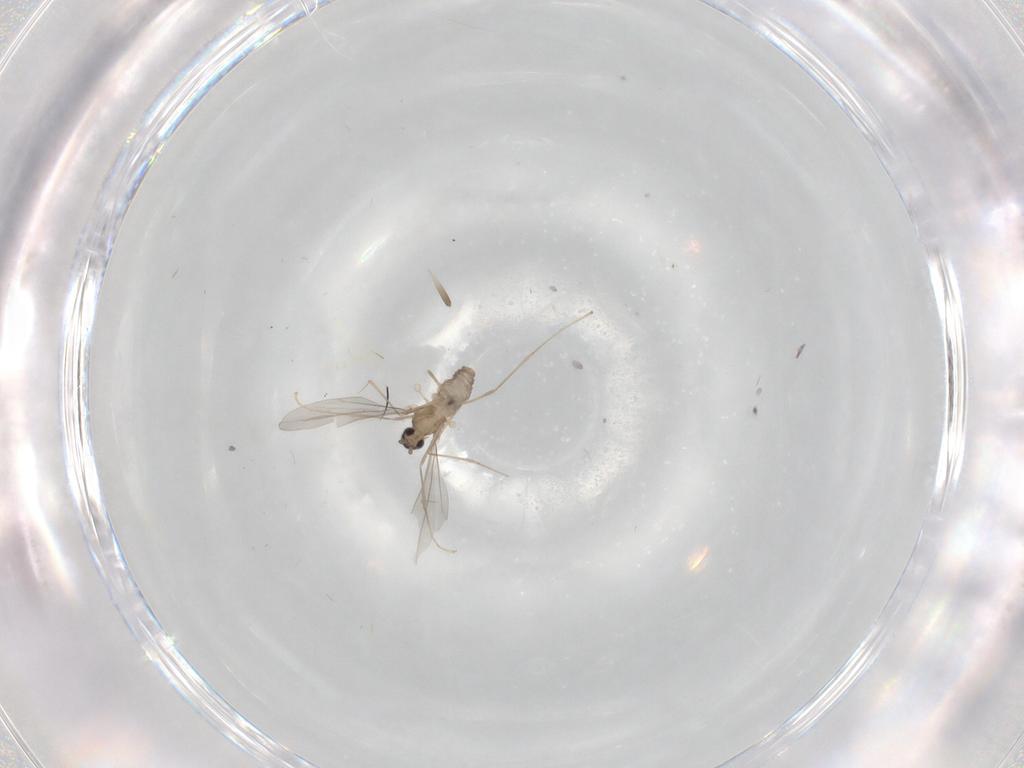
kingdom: Animalia
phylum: Arthropoda
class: Insecta
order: Diptera
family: Cecidomyiidae
